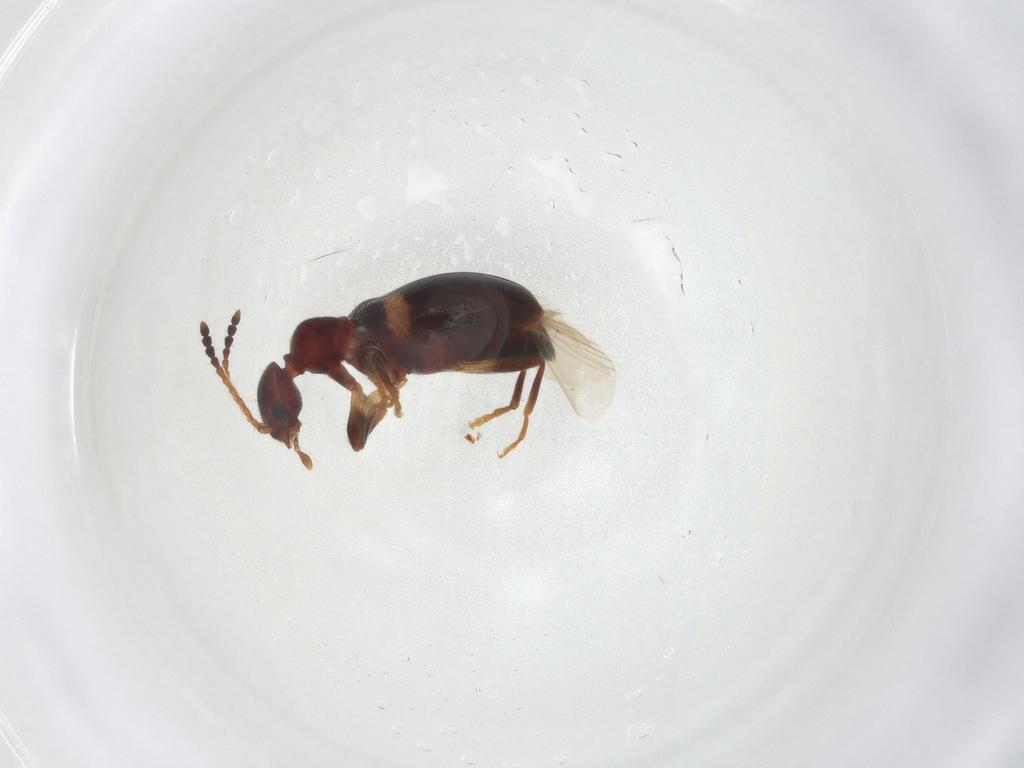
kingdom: Animalia
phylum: Arthropoda
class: Insecta
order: Coleoptera
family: Anthicidae
